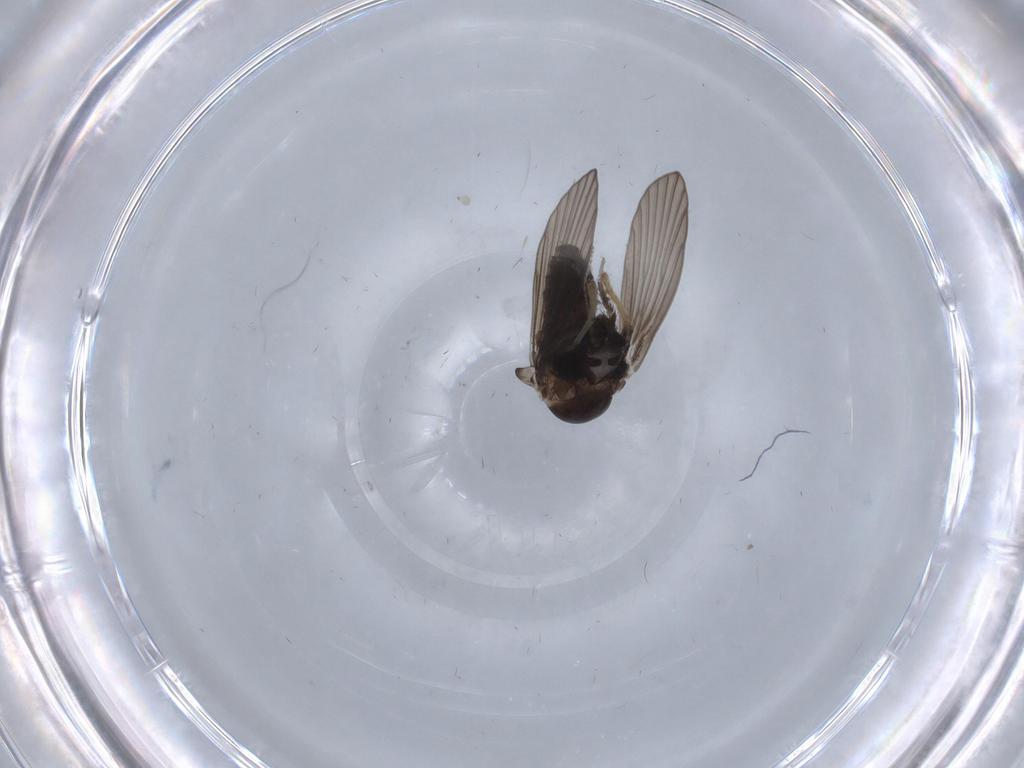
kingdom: Animalia
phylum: Arthropoda
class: Insecta
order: Diptera
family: Psychodidae
